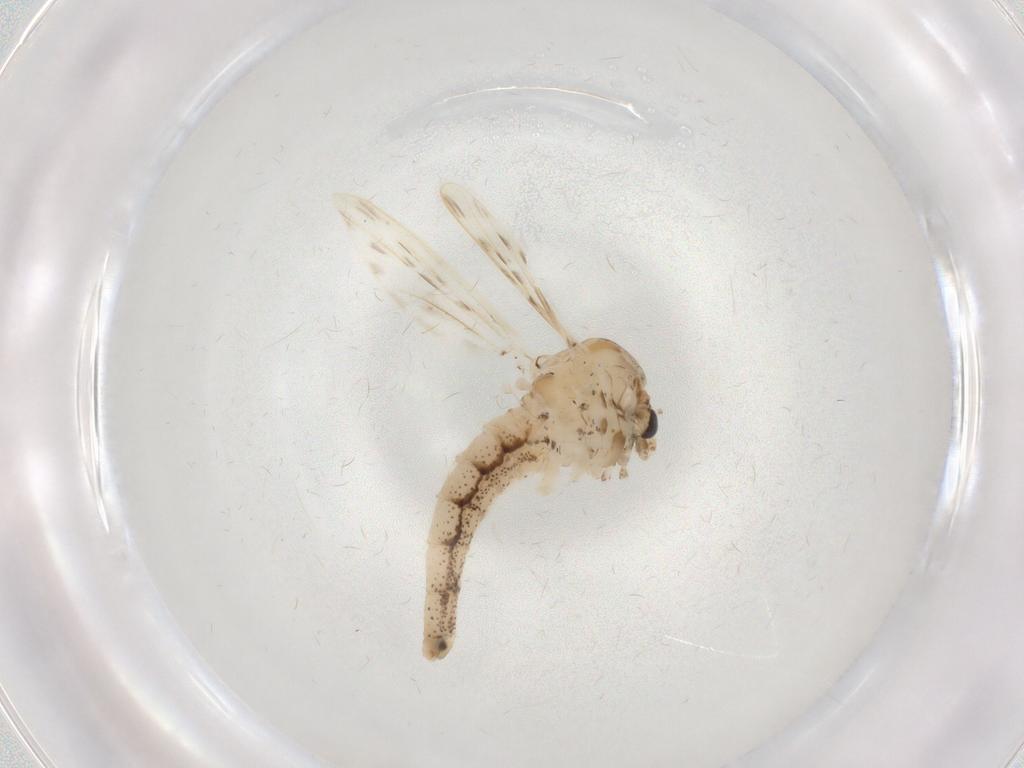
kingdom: Animalia
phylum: Arthropoda
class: Insecta
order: Diptera
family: Chaoboridae
